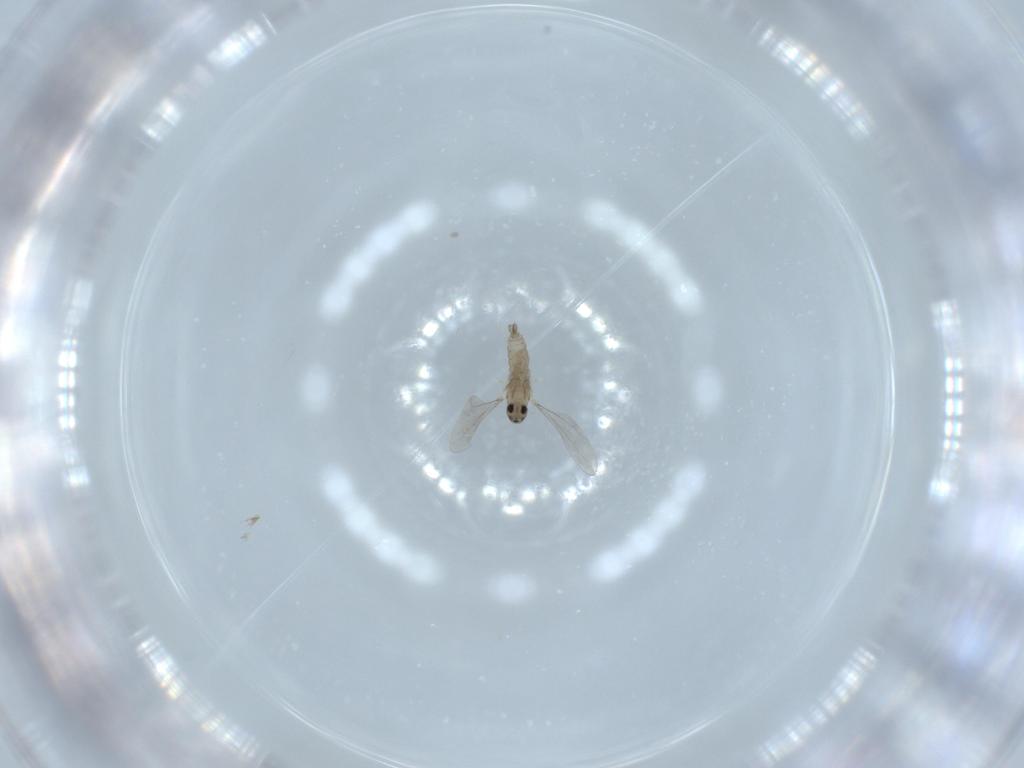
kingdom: Animalia
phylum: Arthropoda
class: Insecta
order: Diptera
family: Cecidomyiidae
